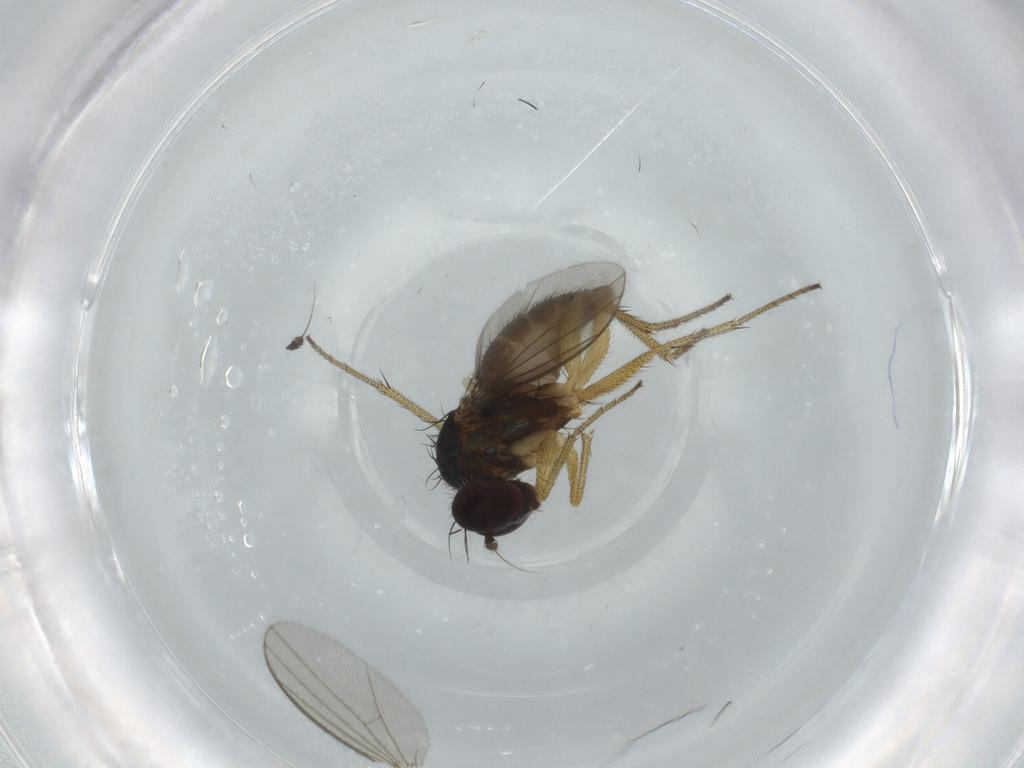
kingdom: Animalia
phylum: Arthropoda
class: Insecta
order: Diptera
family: Dolichopodidae
